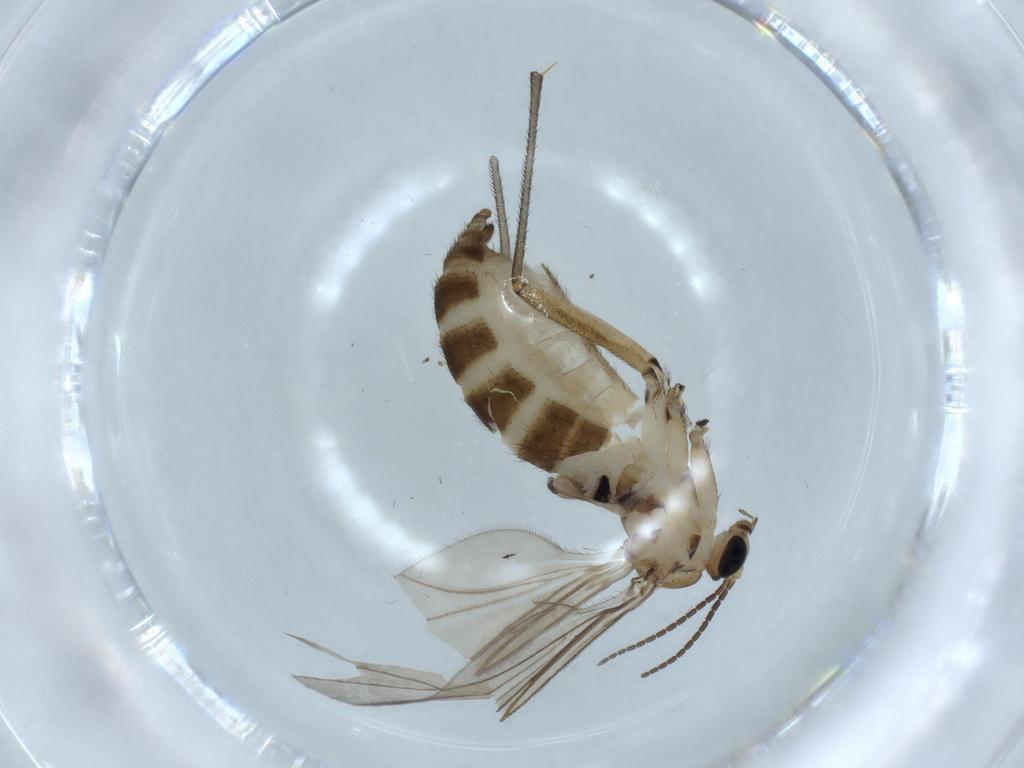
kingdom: Animalia
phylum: Arthropoda
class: Insecta
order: Diptera
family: Sciaridae
